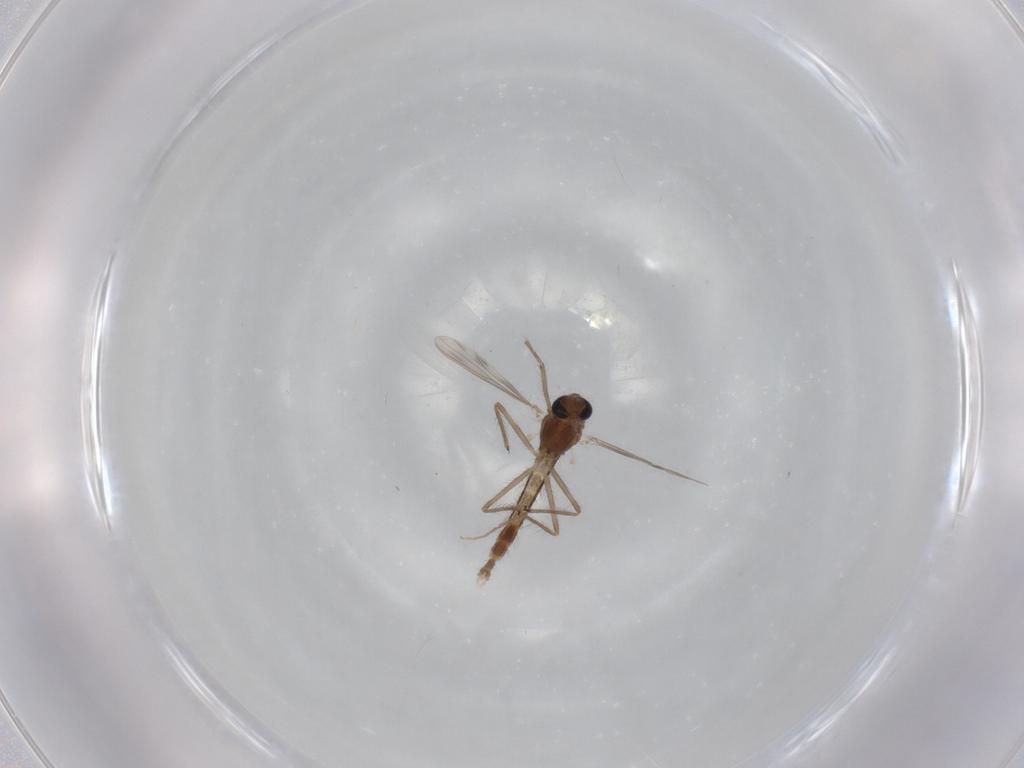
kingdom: Animalia
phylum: Arthropoda
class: Insecta
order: Diptera
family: Chironomidae
